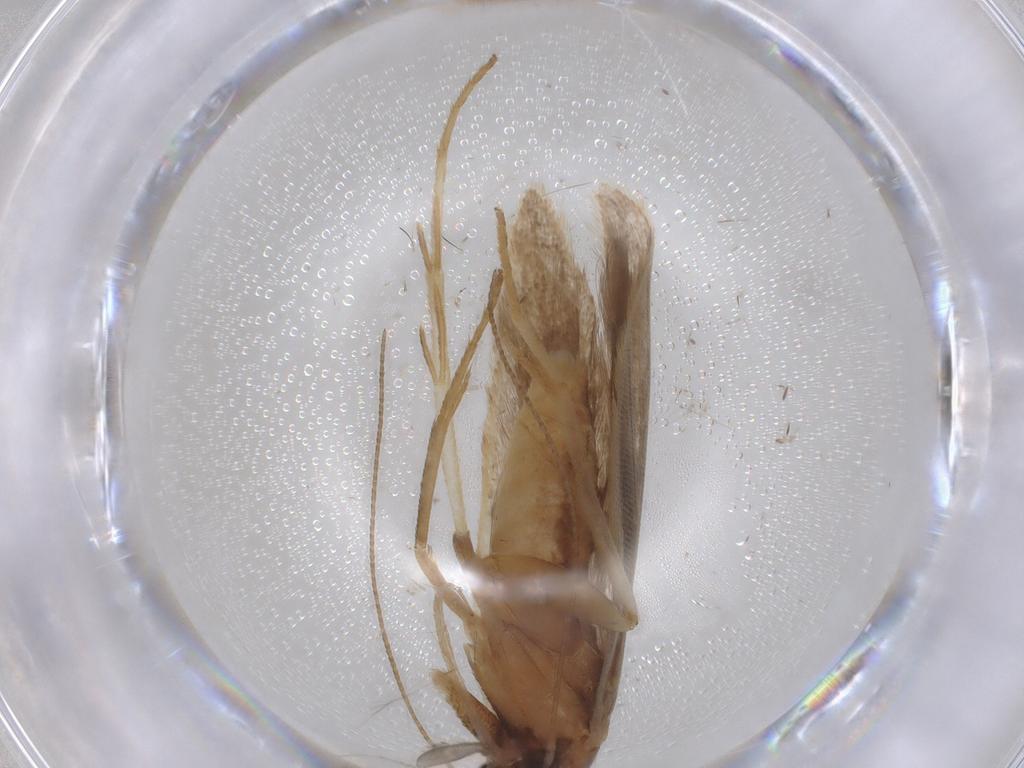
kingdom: Animalia
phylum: Arthropoda
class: Insecta
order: Lepidoptera
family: Gelechiidae
